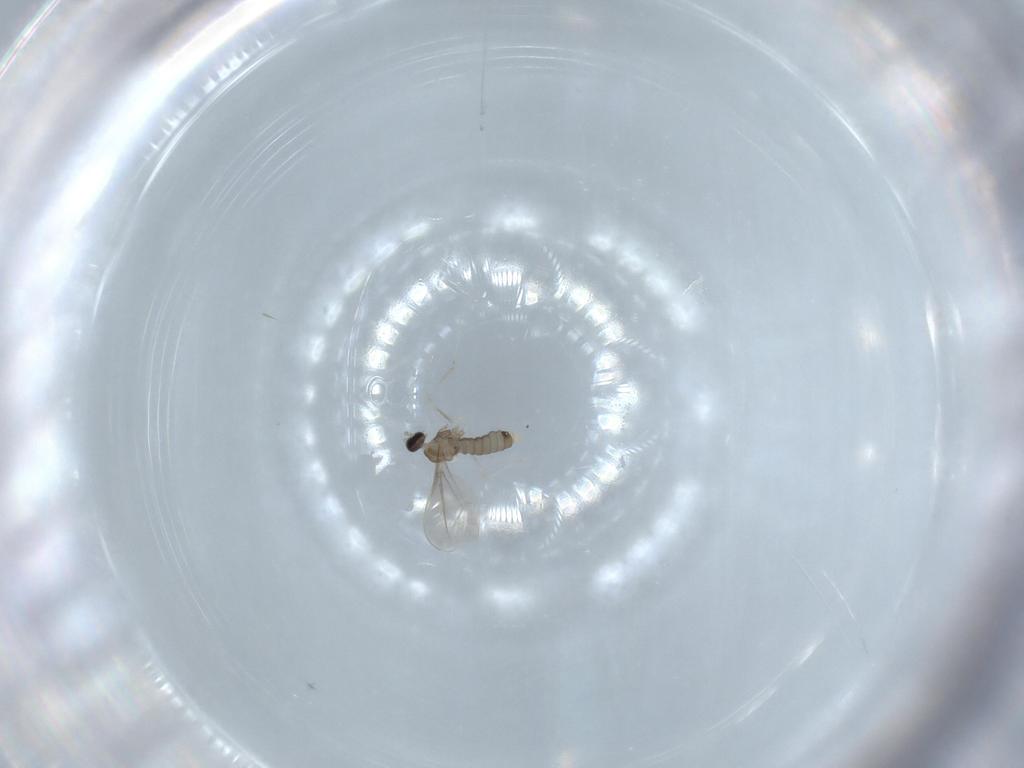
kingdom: Animalia
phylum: Arthropoda
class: Insecta
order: Diptera
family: Cecidomyiidae
